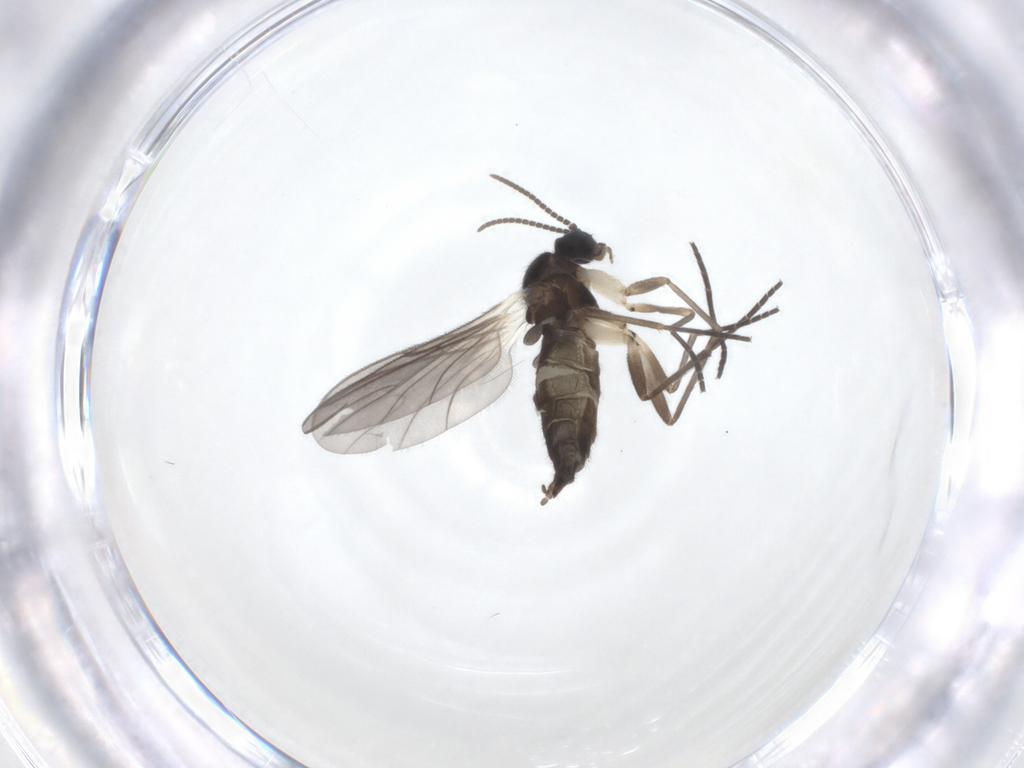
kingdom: Animalia
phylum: Arthropoda
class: Insecta
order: Diptera
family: Sciaridae
